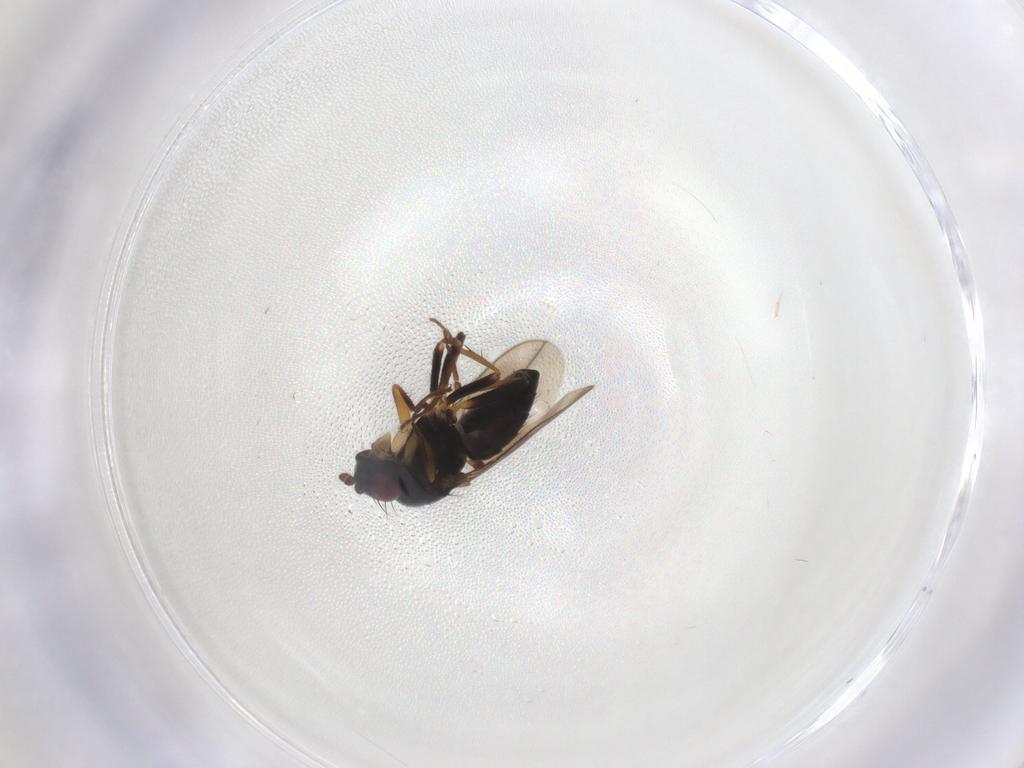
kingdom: Animalia
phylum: Arthropoda
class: Insecta
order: Diptera
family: Sphaeroceridae
